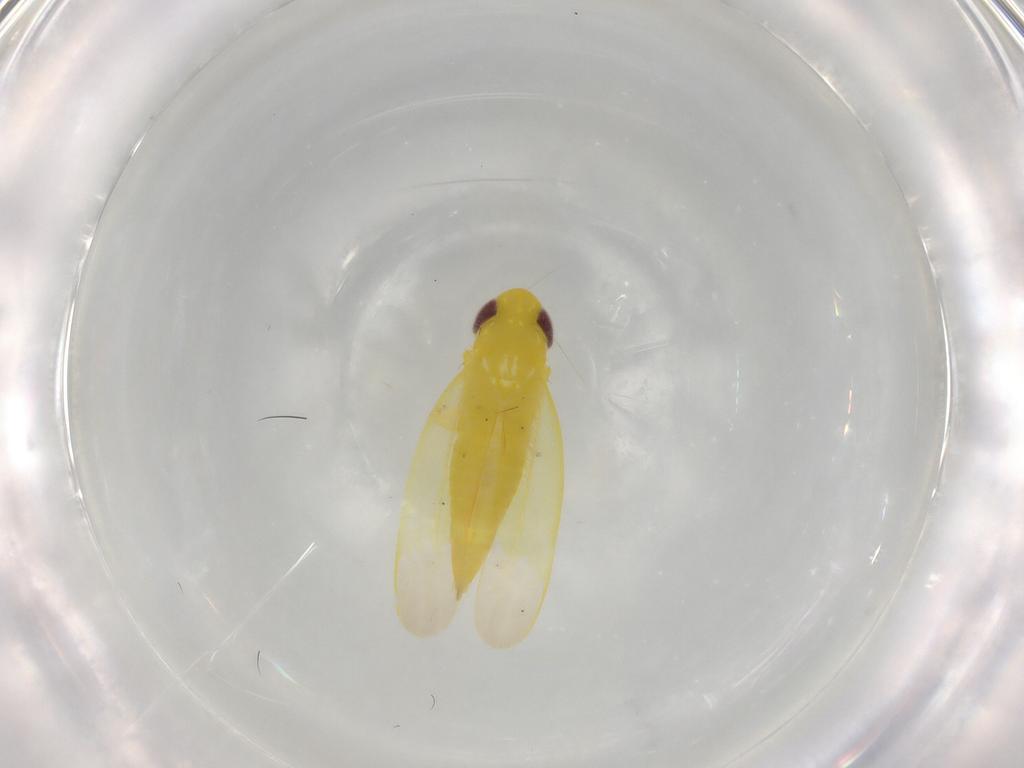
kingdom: Animalia
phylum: Arthropoda
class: Insecta
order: Hemiptera
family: Cicadellidae
